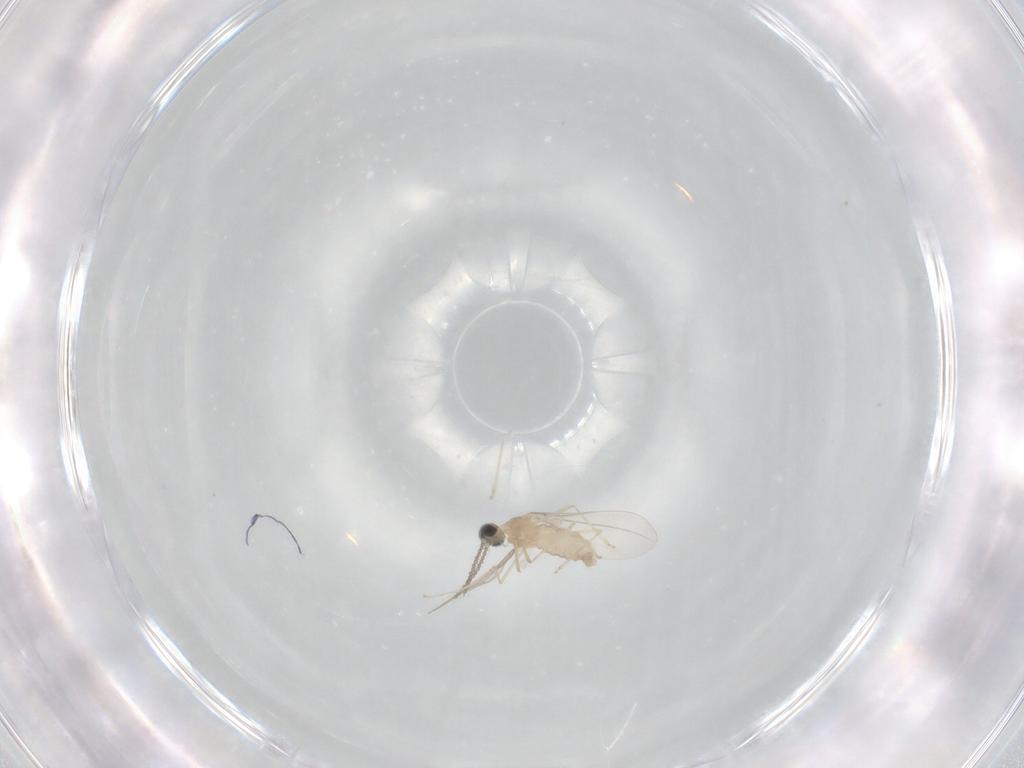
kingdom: Animalia
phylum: Arthropoda
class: Insecta
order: Diptera
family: Cecidomyiidae
